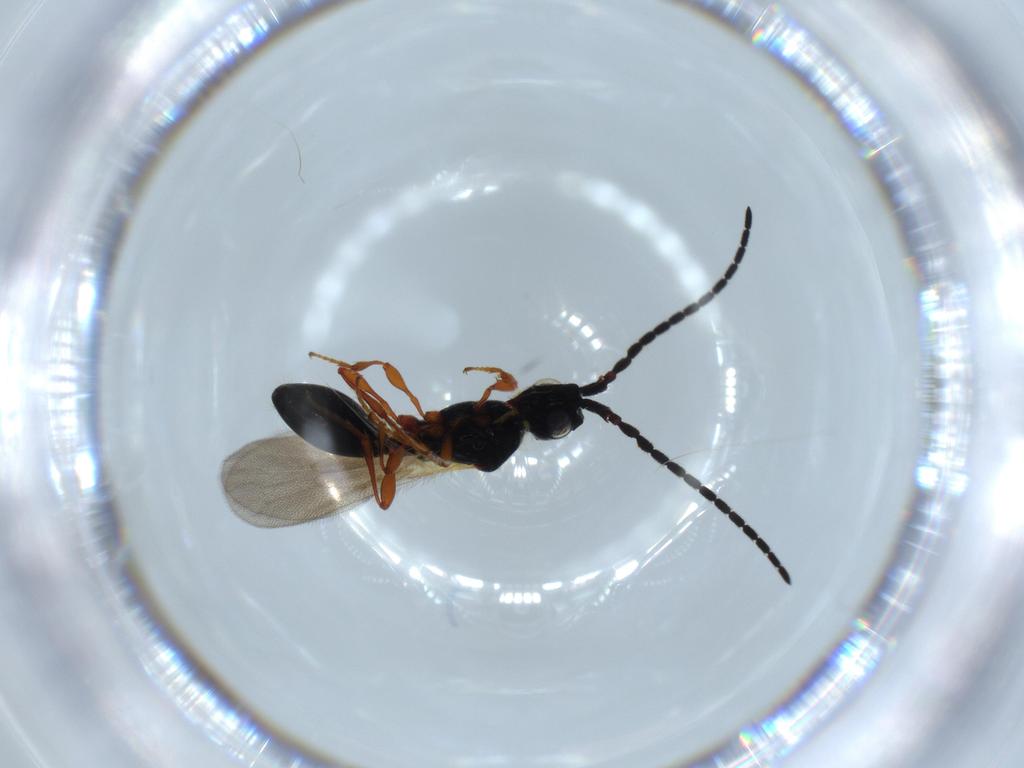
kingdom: Animalia
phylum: Arthropoda
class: Insecta
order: Hymenoptera
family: Diapriidae
